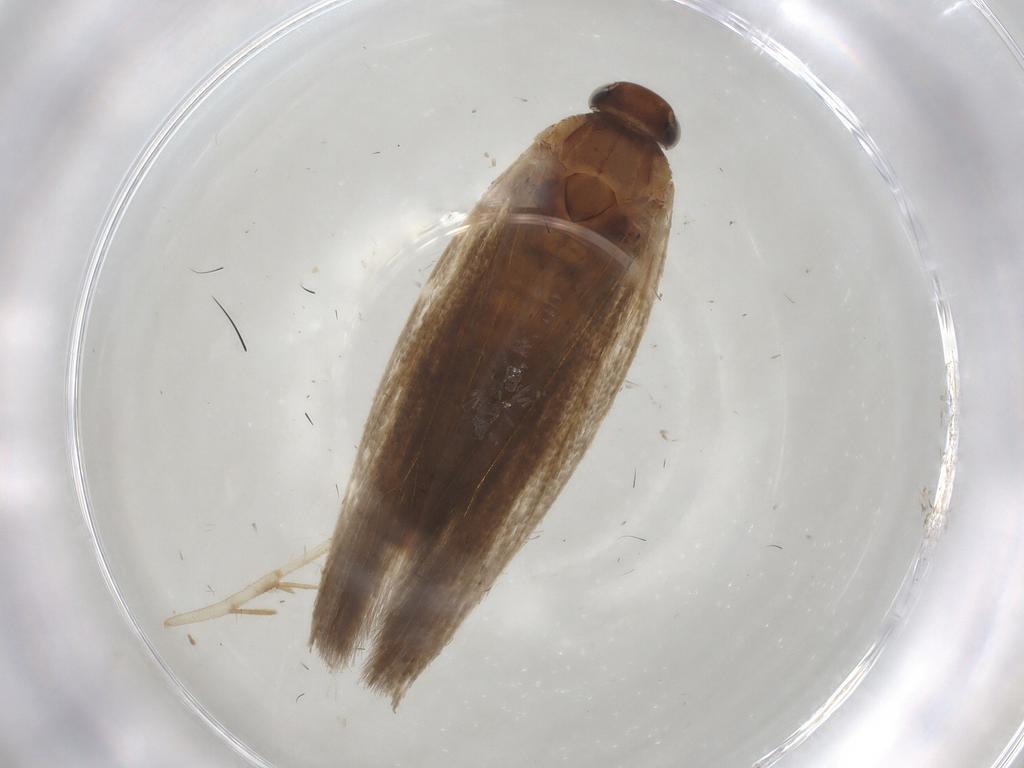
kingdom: Animalia
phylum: Arthropoda
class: Insecta
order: Lepidoptera
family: Gelechiidae
